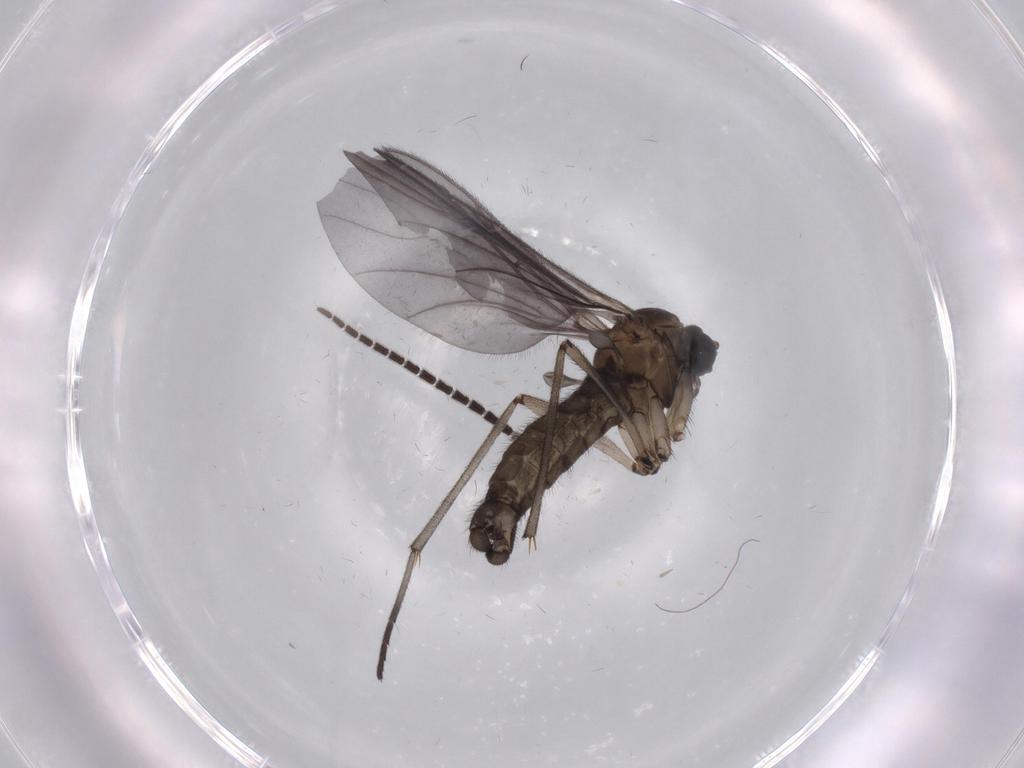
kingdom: Animalia
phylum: Arthropoda
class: Insecta
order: Diptera
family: Sciaridae
